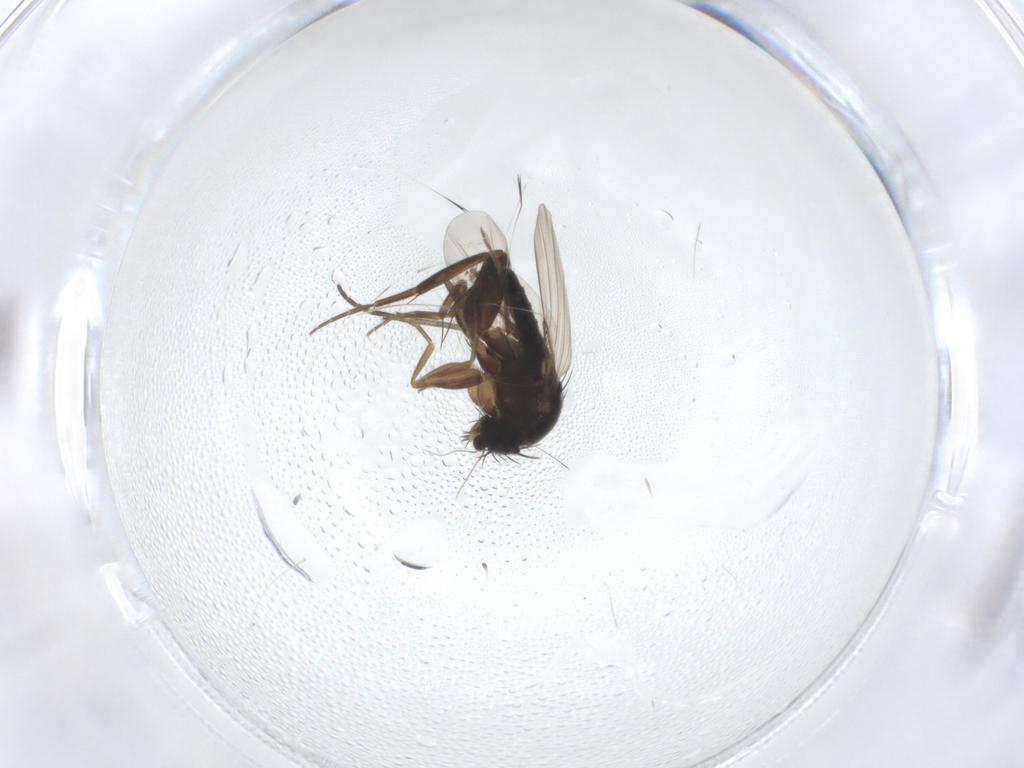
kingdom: Animalia
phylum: Arthropoda
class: Insecta
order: Diptera
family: Sciaridae
